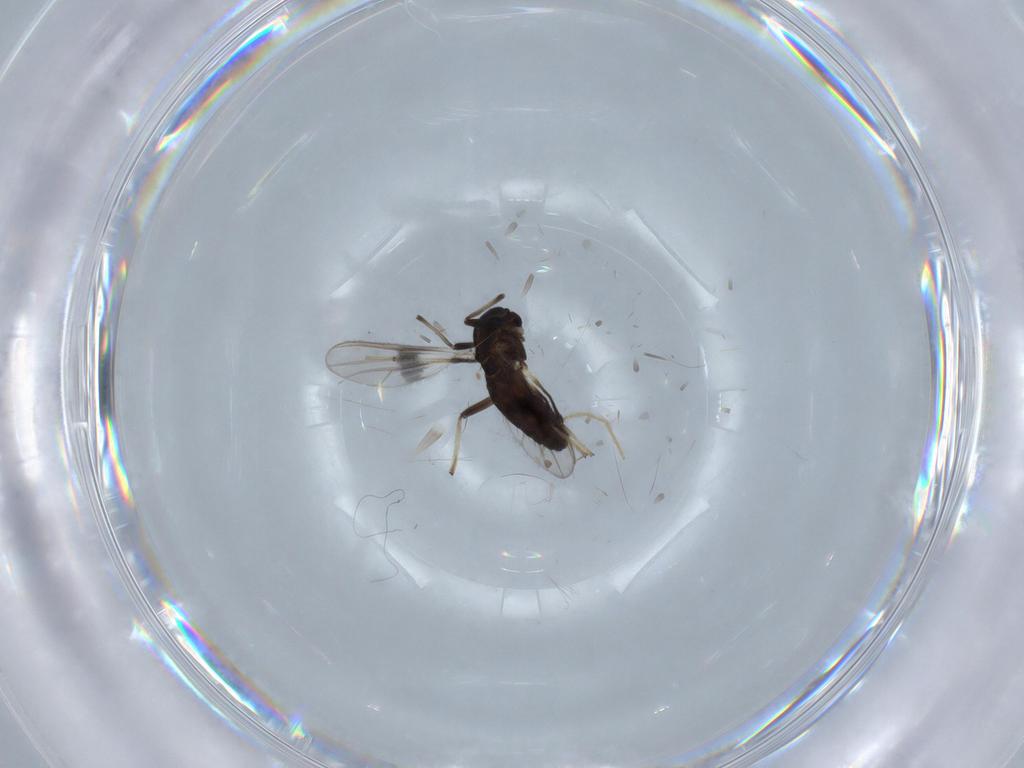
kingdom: Animalia
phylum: Arthropoda
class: Insecta
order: Diptera
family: Chironomidae
